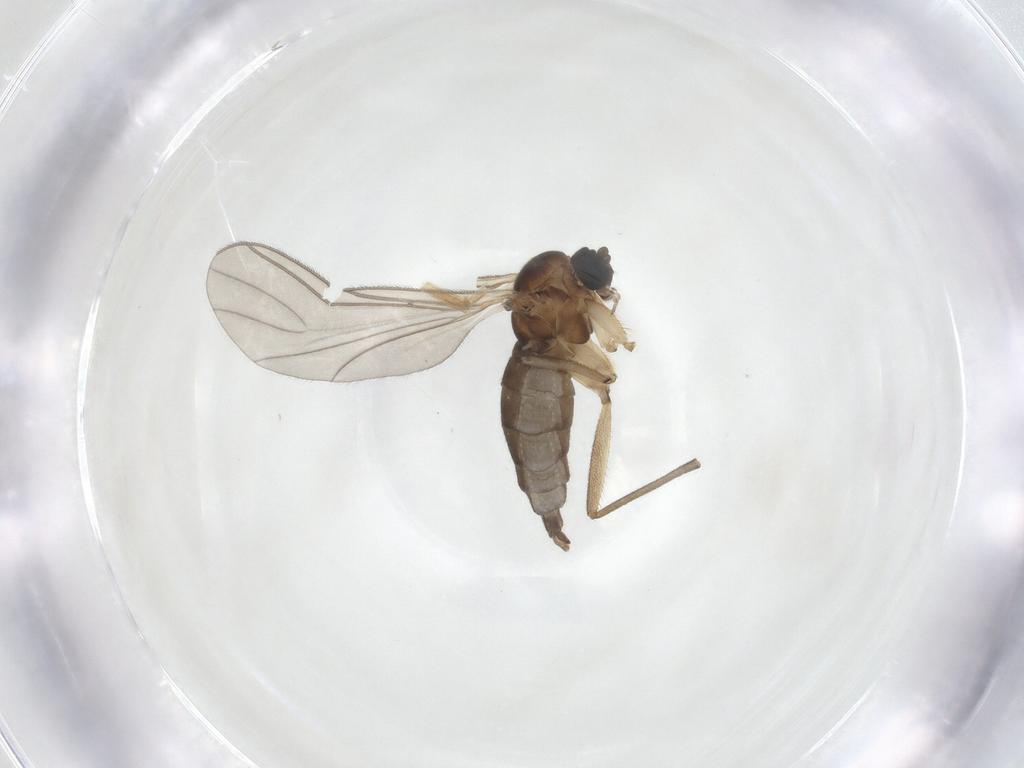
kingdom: Animalia
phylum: Arthropoda
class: Insecta
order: Diptera
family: Sciaridae
